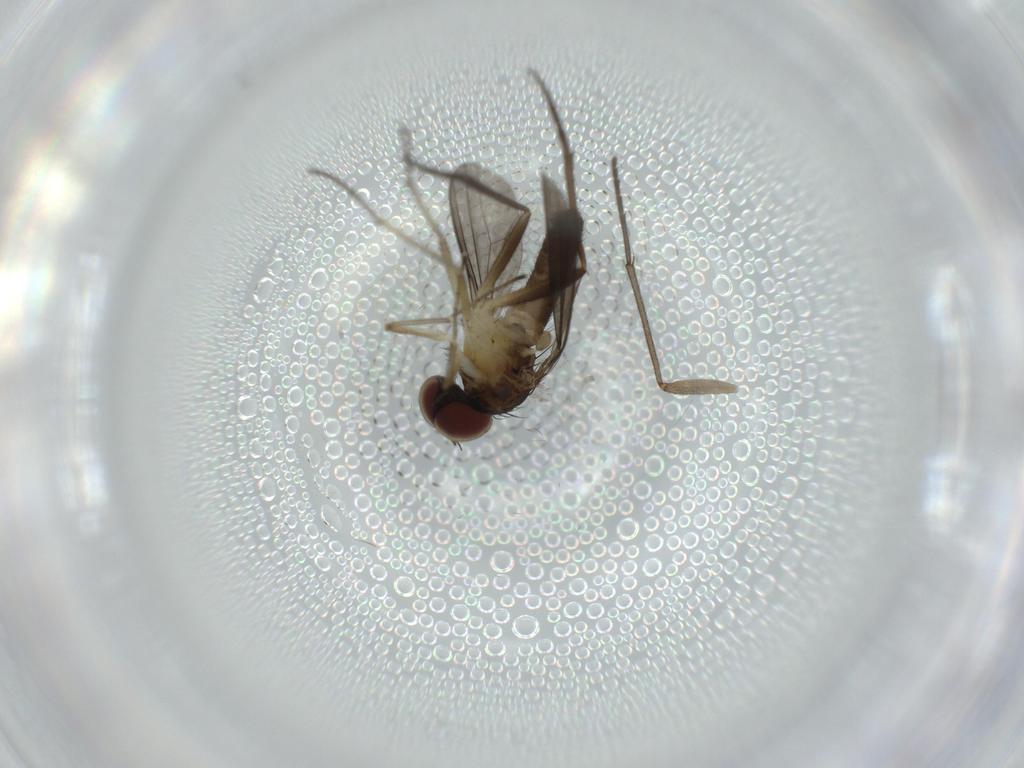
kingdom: Animalia
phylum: Arthropoda
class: Insecta
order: Diptera
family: Sciaridae
